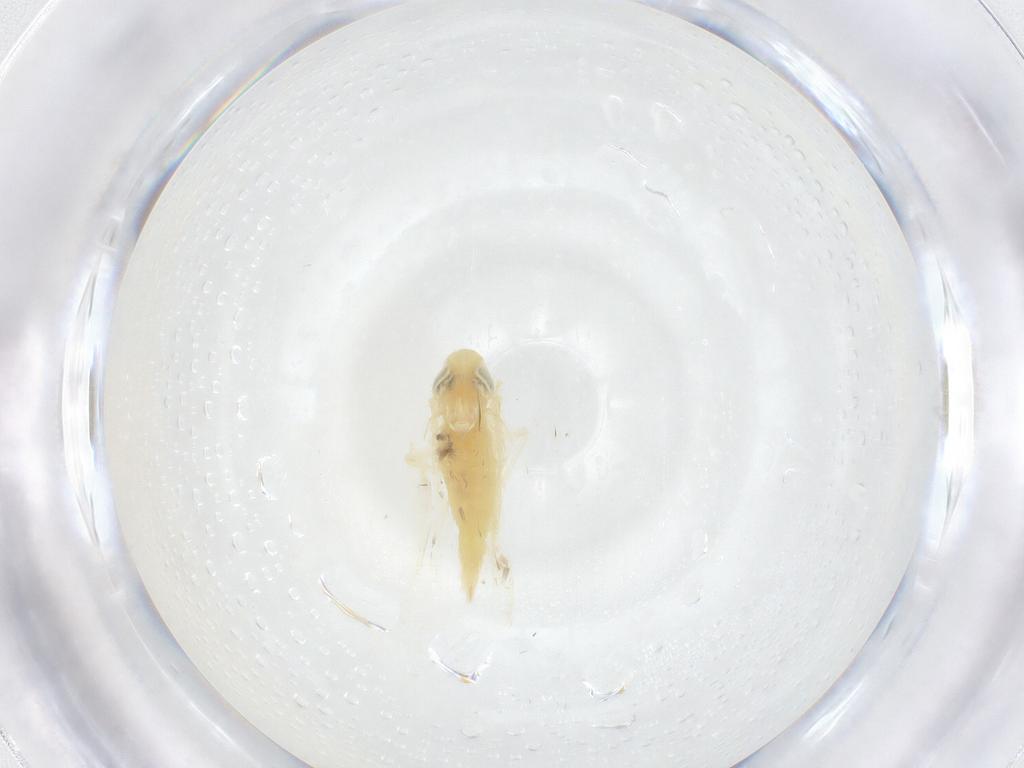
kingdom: Animalia
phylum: Arthropoda
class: Insecta
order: Hemiptera
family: Cicadellidae
